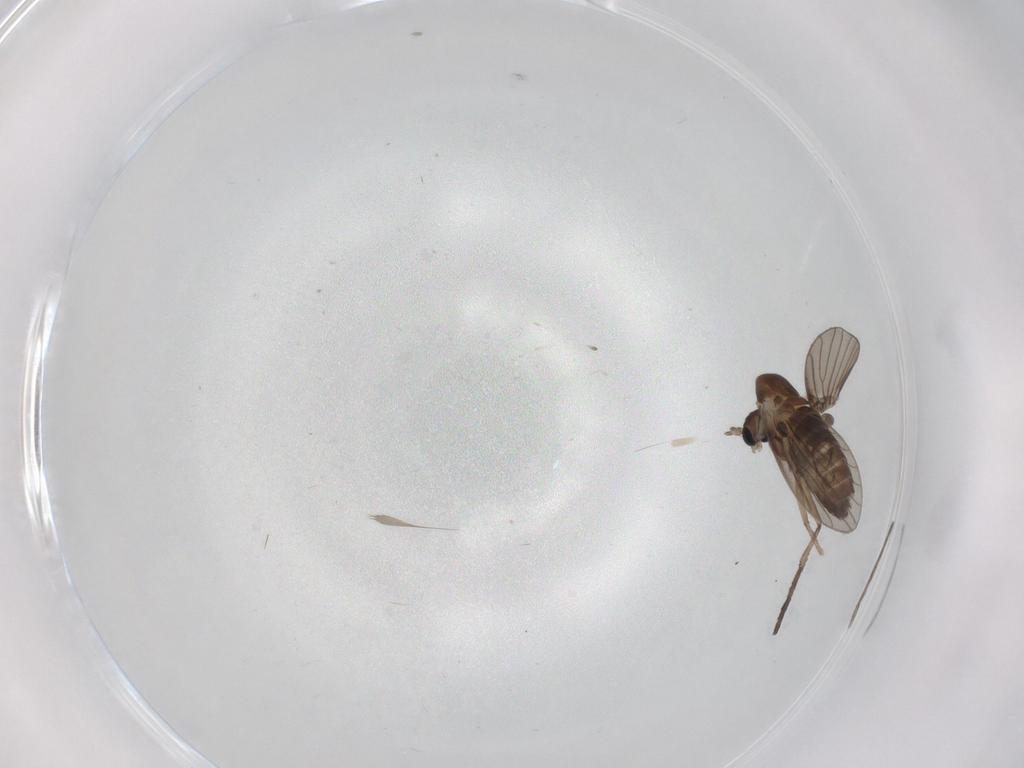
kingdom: Animalia
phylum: Arthropoda
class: Insecta
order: Diptera
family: Psychodidae
